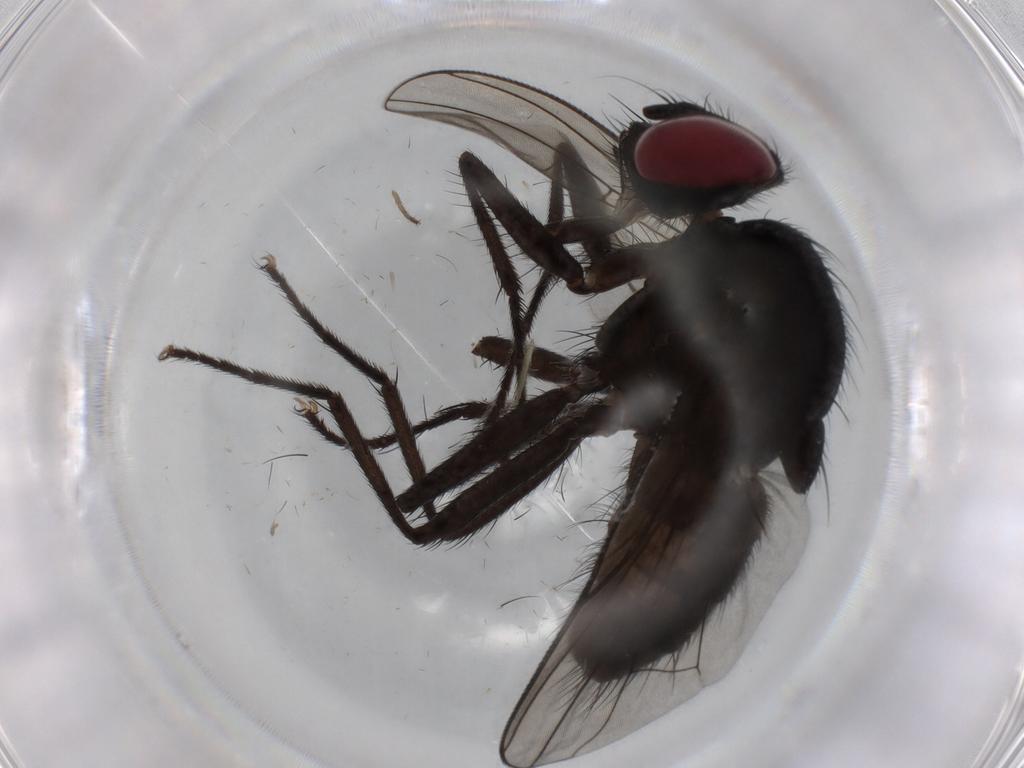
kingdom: Animalia
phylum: Arthropoda
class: Insecta
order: Diptera
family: Muscidae
